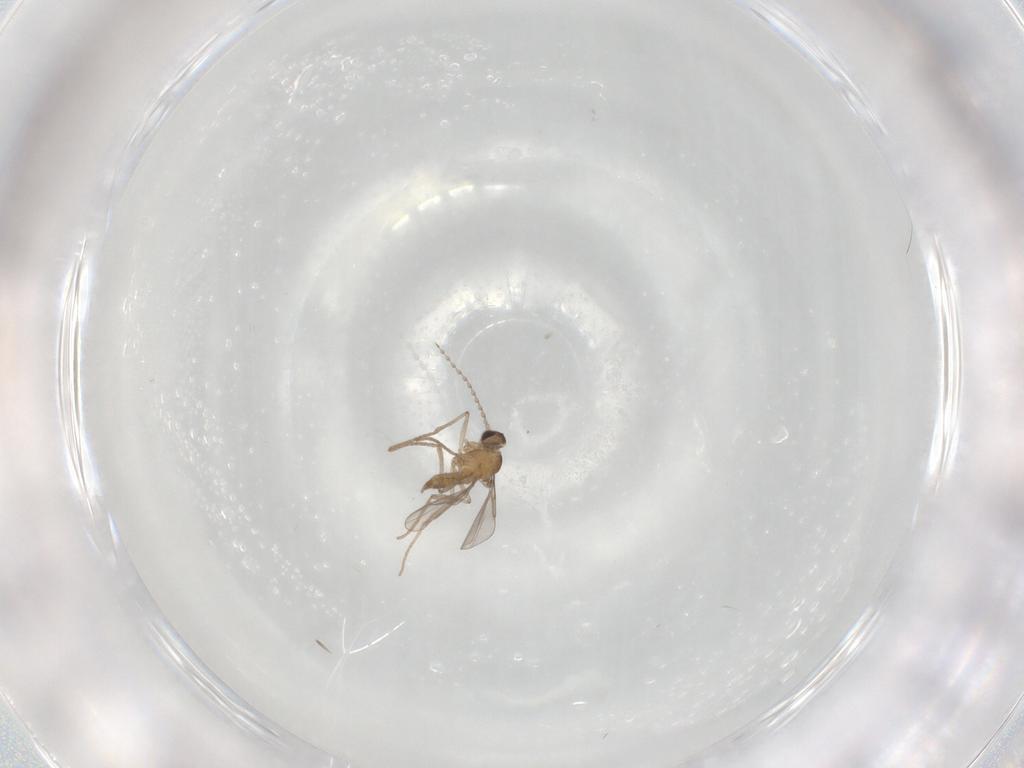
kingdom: Animalia
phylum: Arthropoda
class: Insecta
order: Diptera
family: Cecidomyiidae
